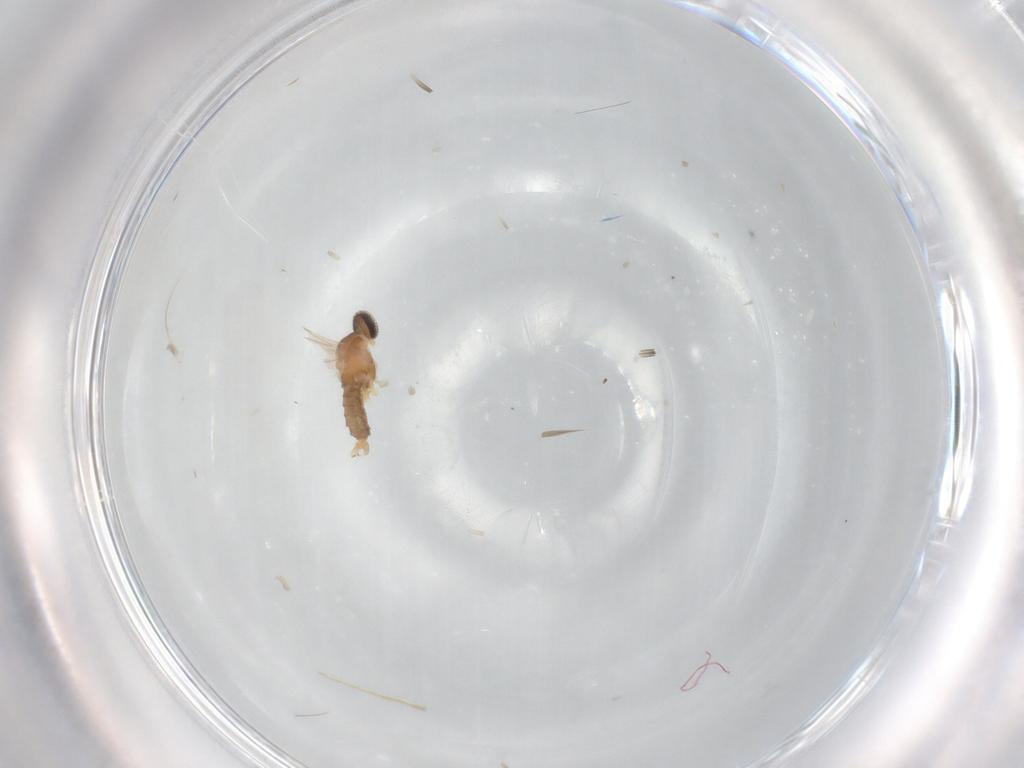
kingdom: Animalia
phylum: Arthropoda
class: Insecta
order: Diptera
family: Cecidomyiidae
